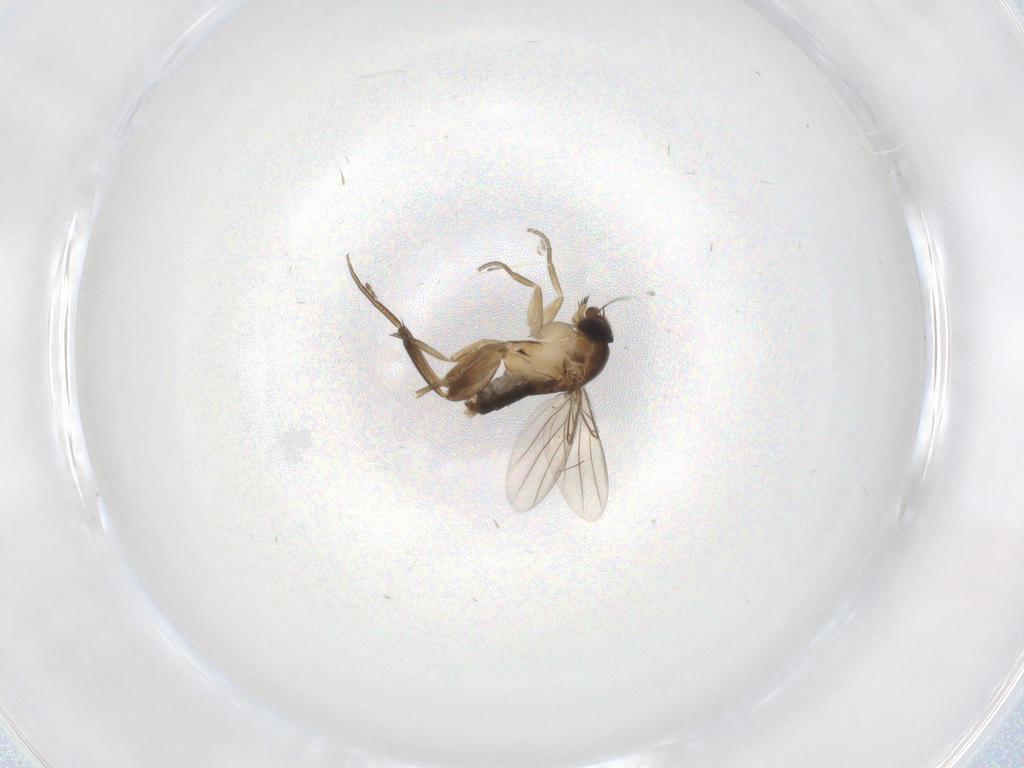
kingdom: Animalia
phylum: Arthropoda
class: Insecta
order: Diptera
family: Phoridae
